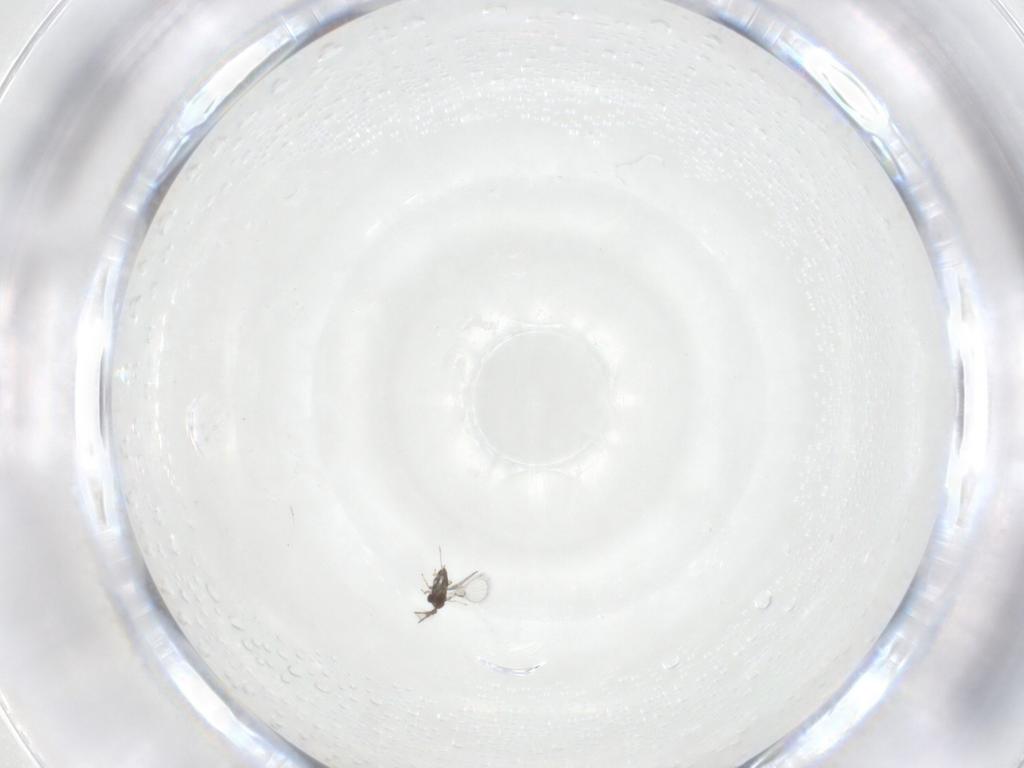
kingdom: Animalia
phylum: Arthropoda
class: Insecta
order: Hymenoptera
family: Trichogrammatidae
